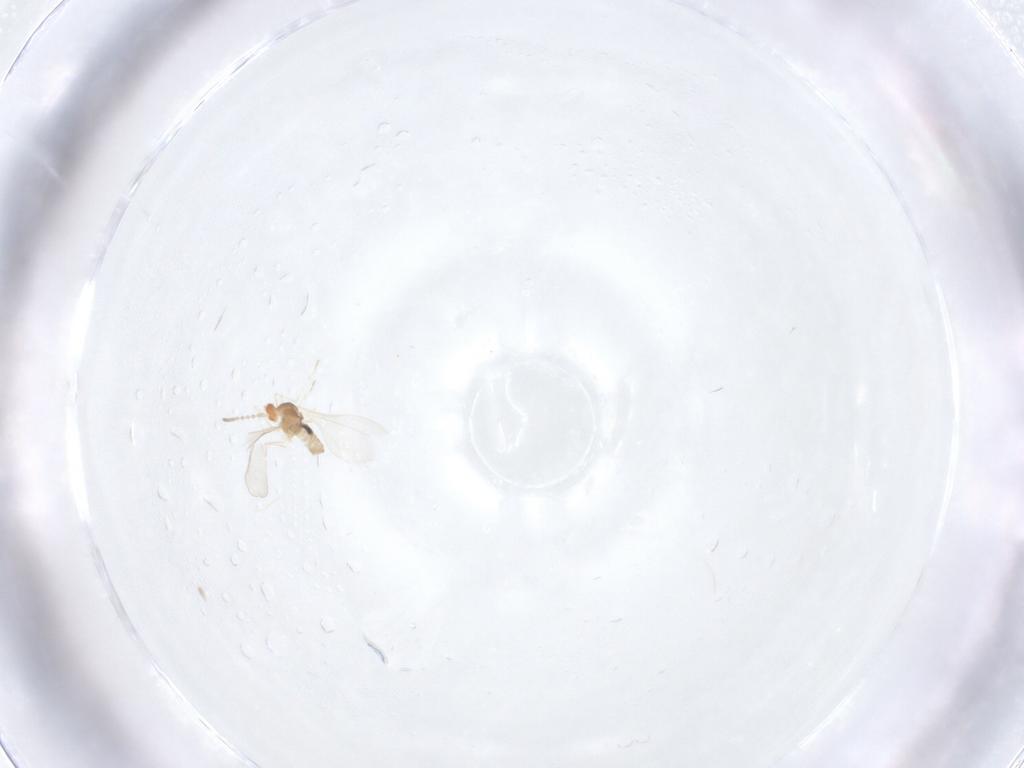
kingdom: Animalia
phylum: Arthropoda
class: Insecta
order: Diptera
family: Cecidomyiidae
